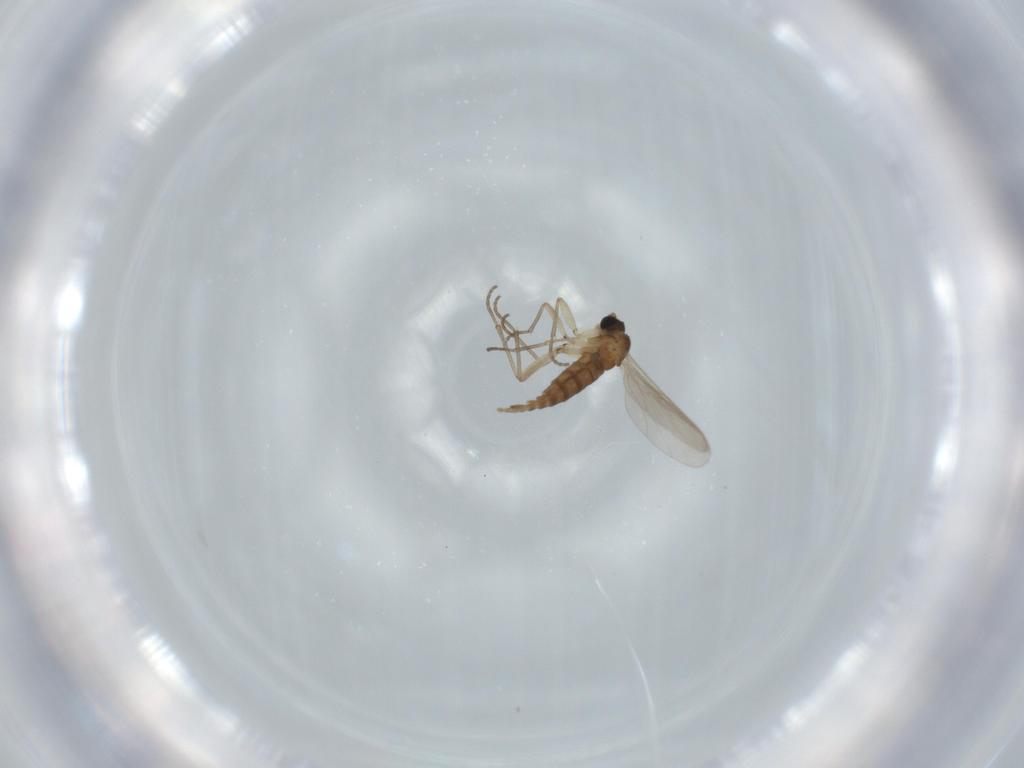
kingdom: Animalia
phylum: Arthropoda
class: Insecta
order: Diptera
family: Sciaridae
